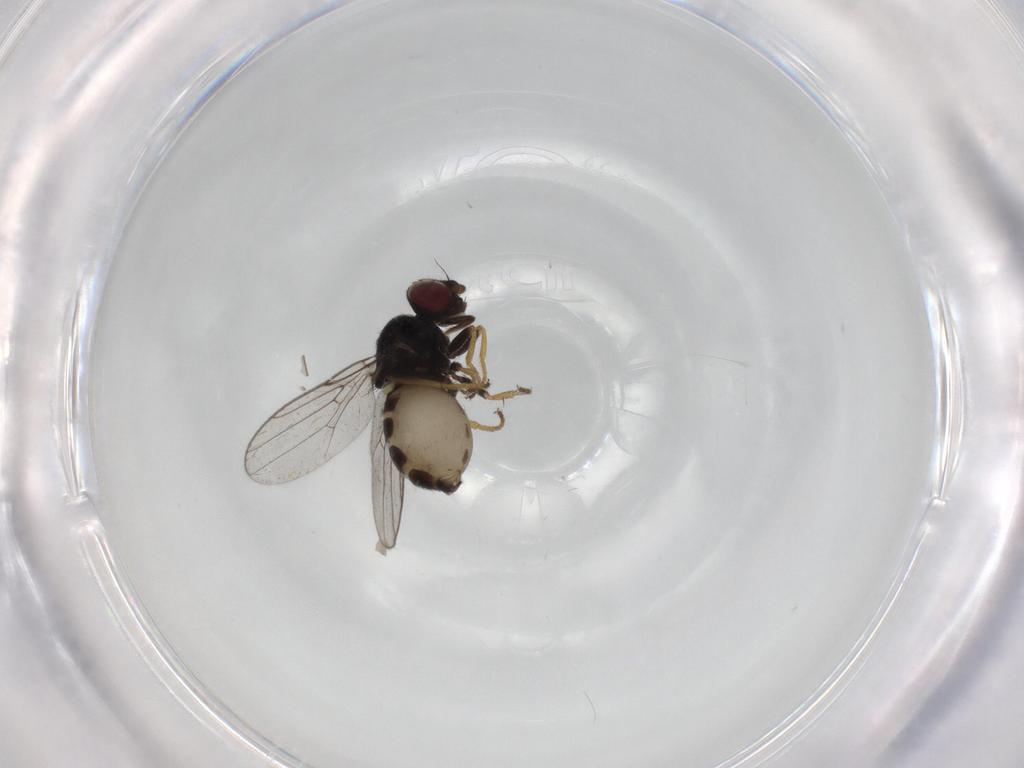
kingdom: Animalia
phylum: Arthropoda
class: Insecta
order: Diptera
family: Chloropidae
